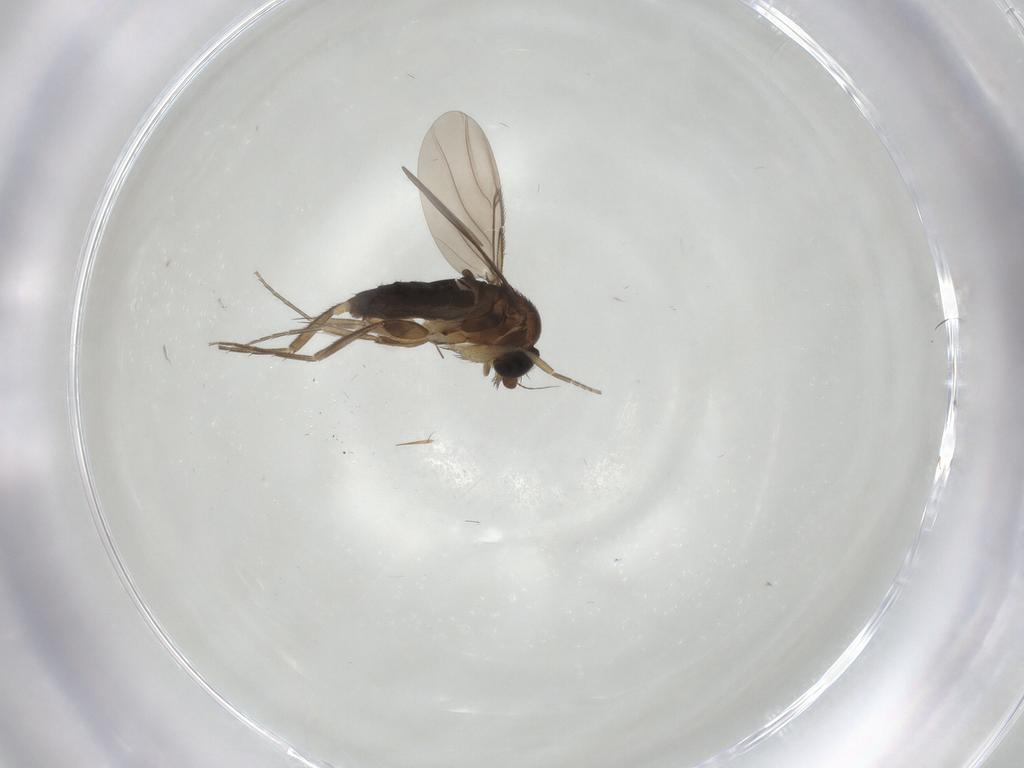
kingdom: Animalia
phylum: Arthropoda
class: Insecta
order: Diptera
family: Phoridae
